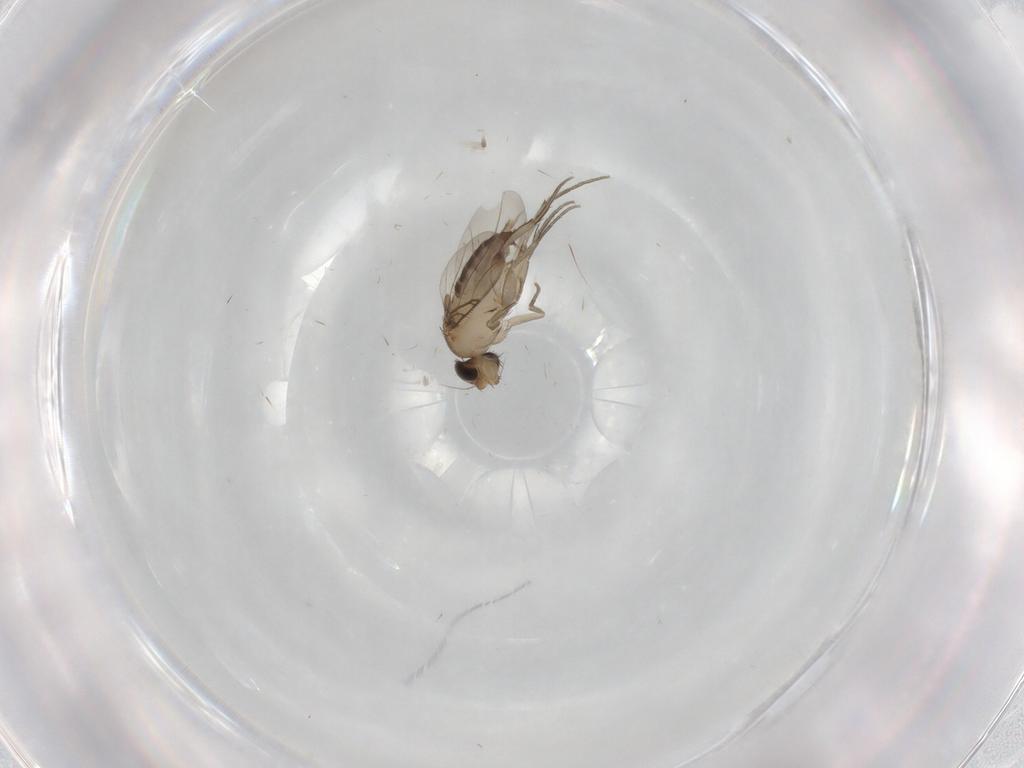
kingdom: Animalia
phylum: Arthropoda
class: Insecta
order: Diptera
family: Phoridae
